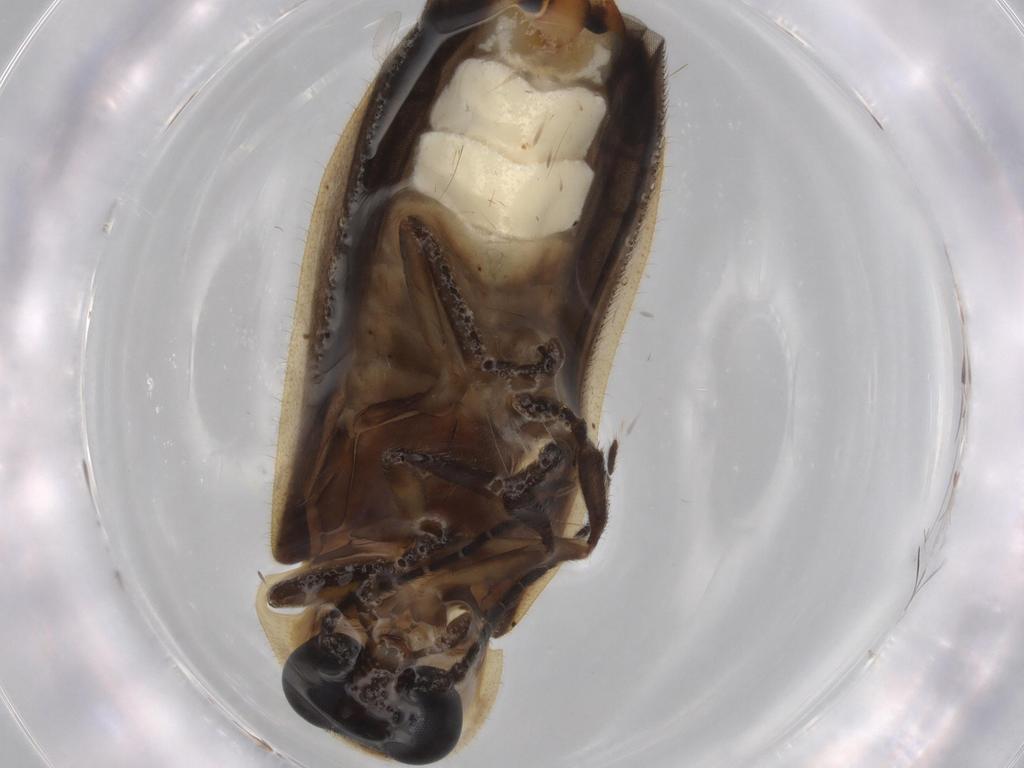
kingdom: Animalia
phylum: Arthropoda
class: Insecta
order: Coleoptera
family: Lampyridae
